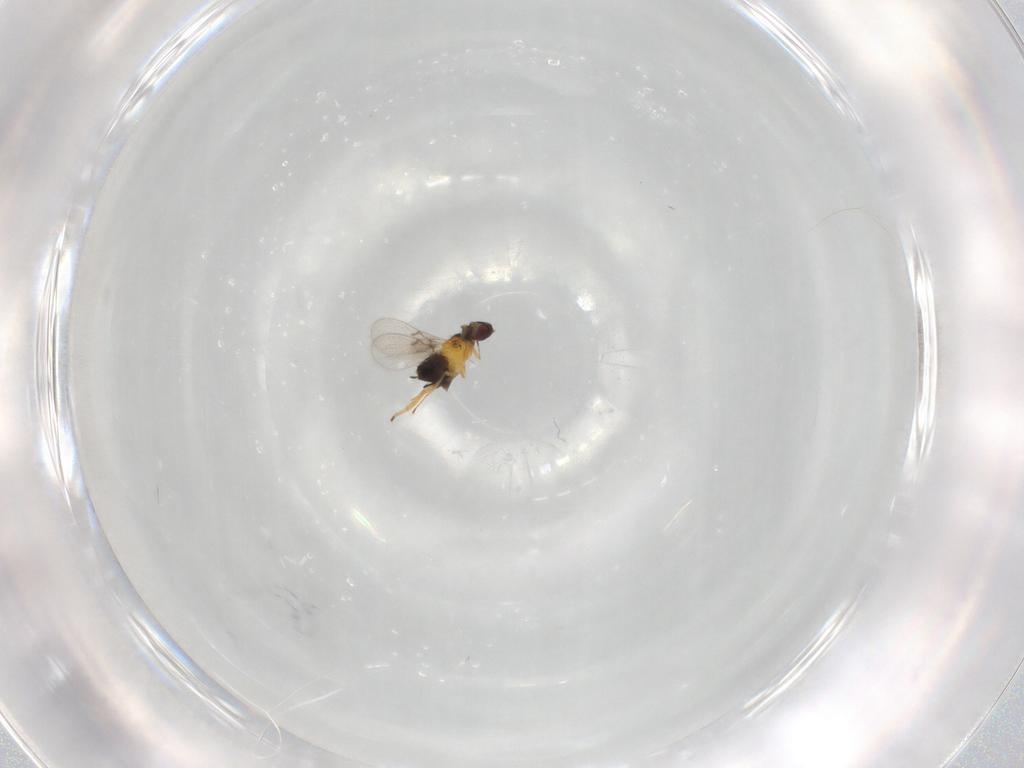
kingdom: Animalia
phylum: Arthropoda
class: Insecta
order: Hymenoptera
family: Trichogrammatidae
